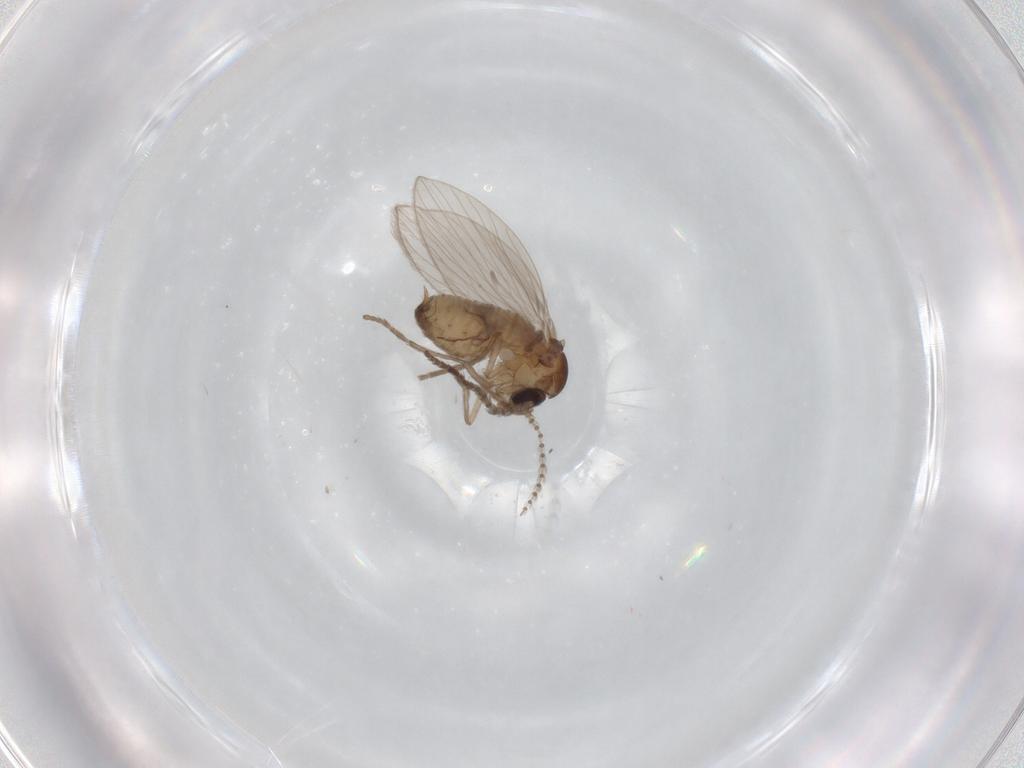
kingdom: Animalia
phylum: Arthropoda
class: Insecta
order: Diptera
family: Psychodidae
